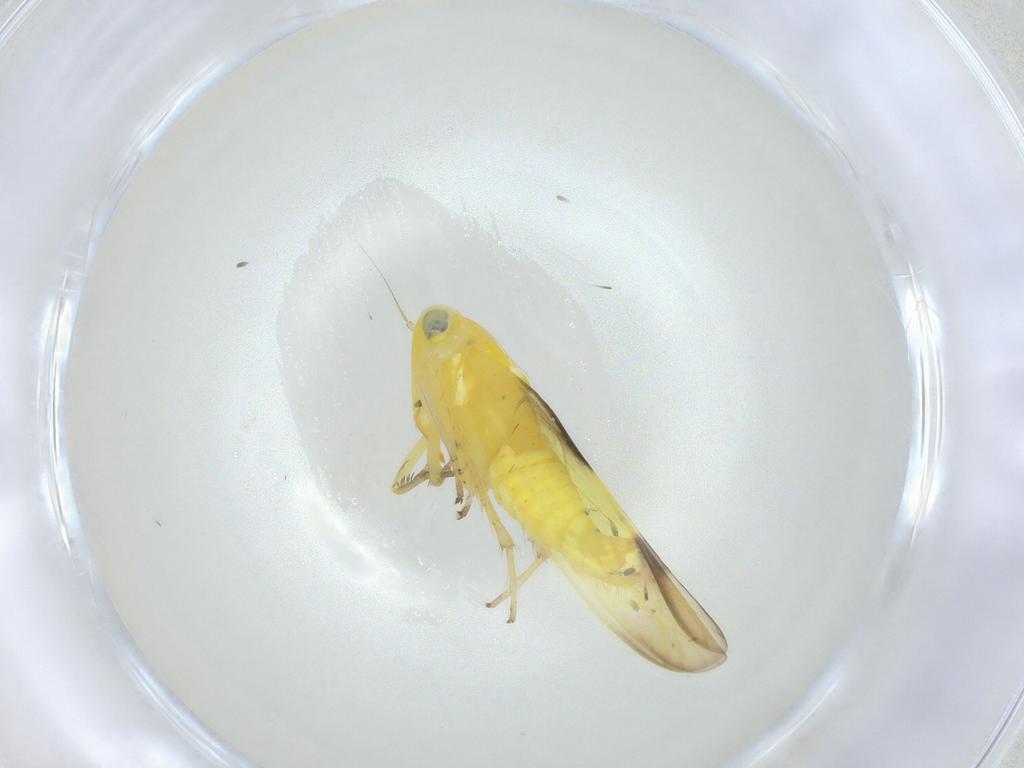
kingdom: Animalia
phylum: Arthropoda
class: Insecta
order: Hemiptera
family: Cicadellidae
